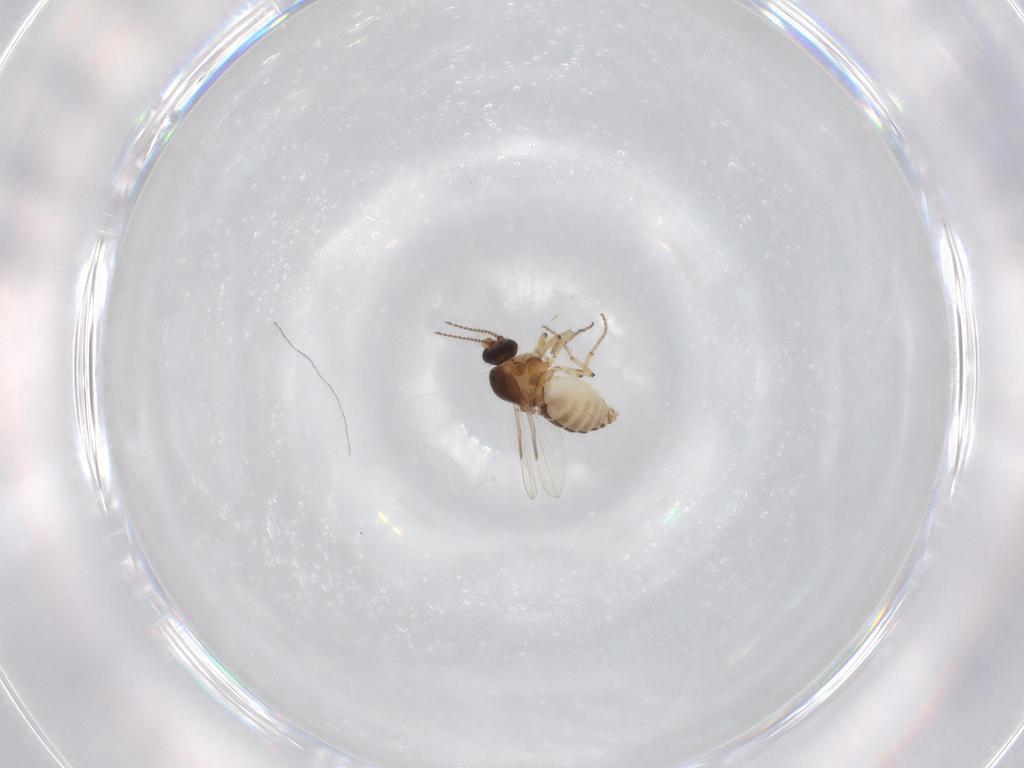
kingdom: Animalia
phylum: Arthropoda
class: Insecta
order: Diptera
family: Ceratopogonidae
